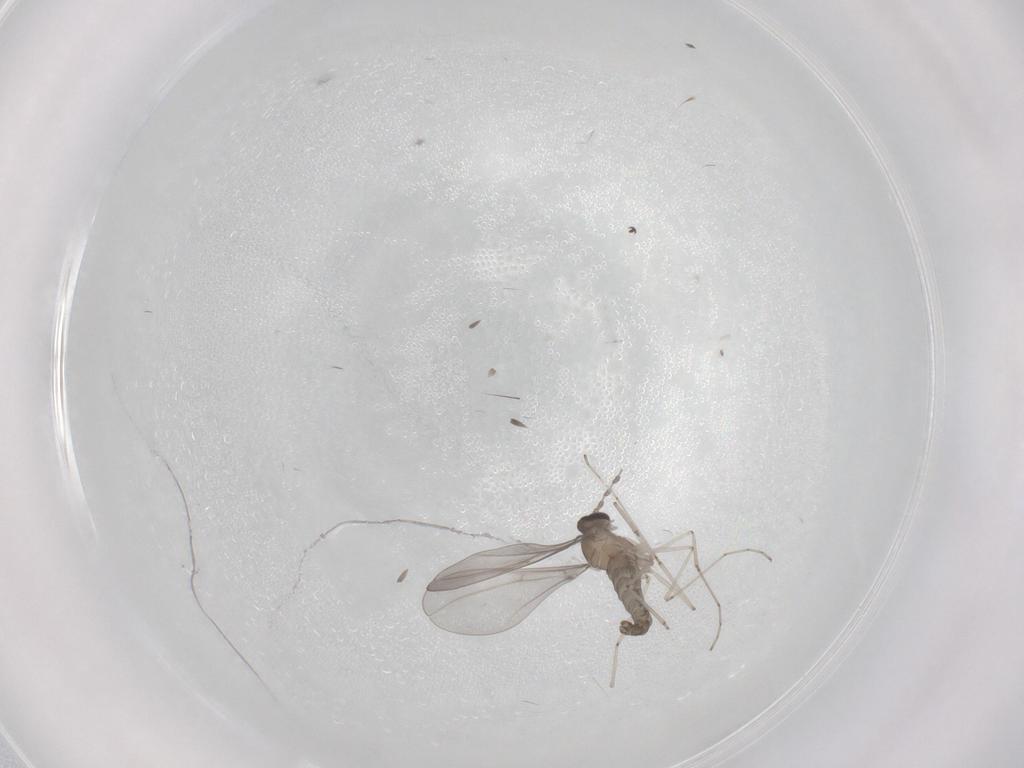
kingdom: Animalia
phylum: Arthropoda
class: Insecta
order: Diptera
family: Cecidomyiidae
